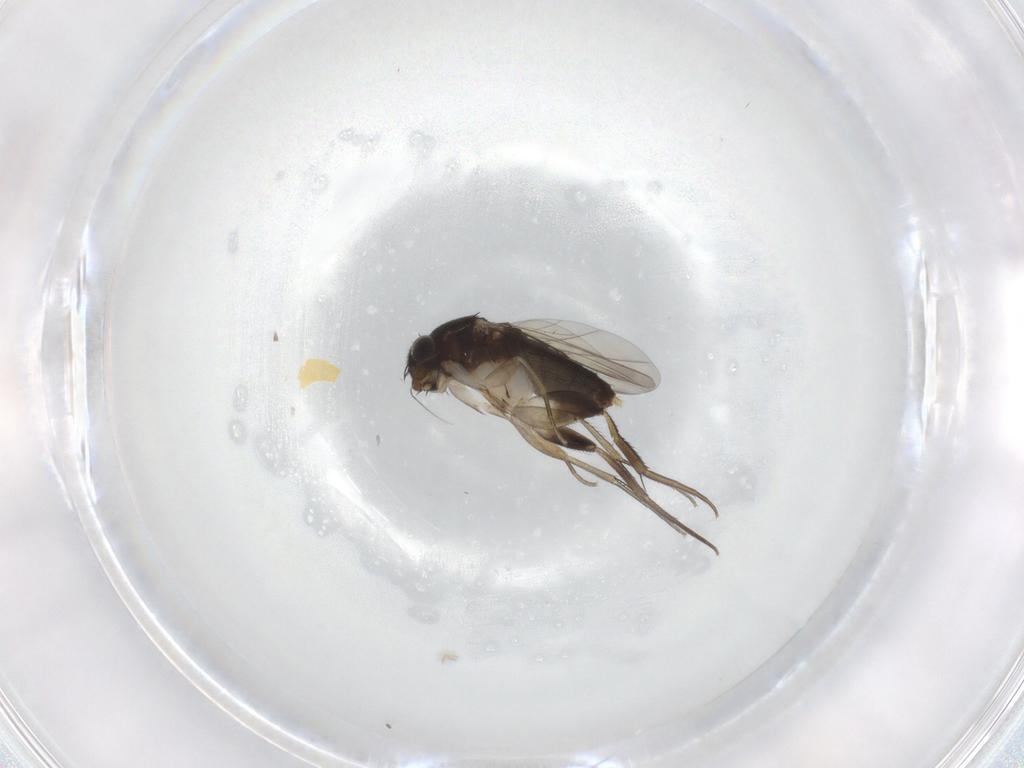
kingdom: Animalia
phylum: Arthropoda
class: Insecta
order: Diptera
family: Phoridae
